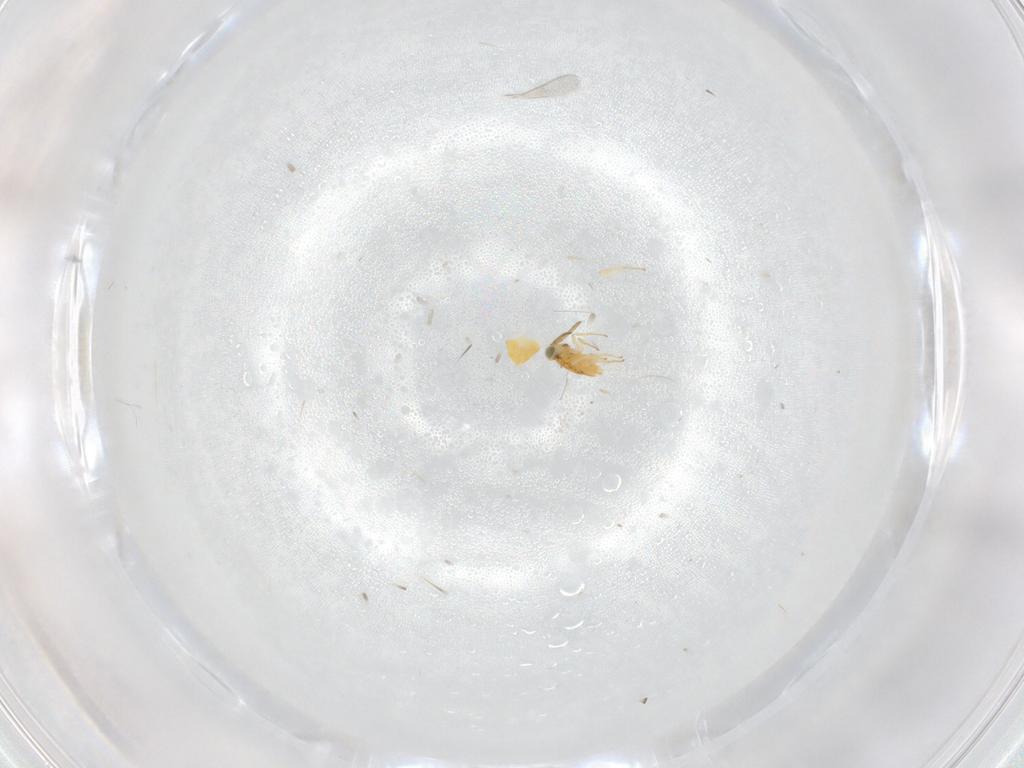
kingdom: Animalia
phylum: Arthropoda
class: Insecta
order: Hymenoptera
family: Aphelinidae
